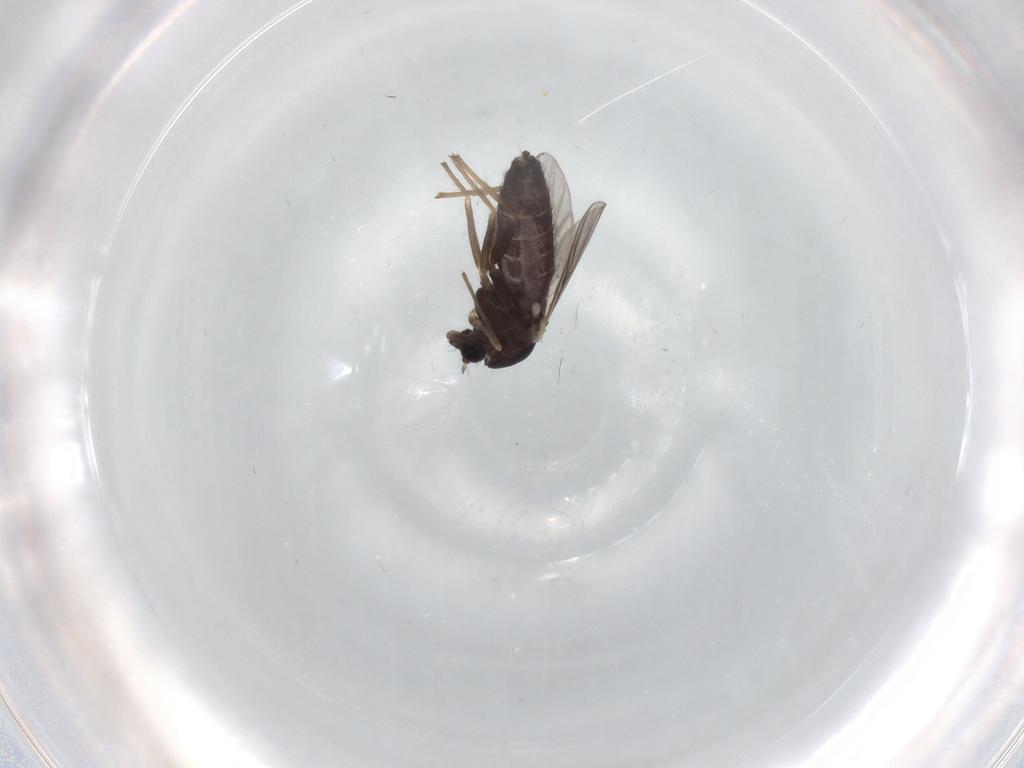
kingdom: Animalia
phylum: Arthropoda
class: Insecta
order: Diptera
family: Chironomidae
